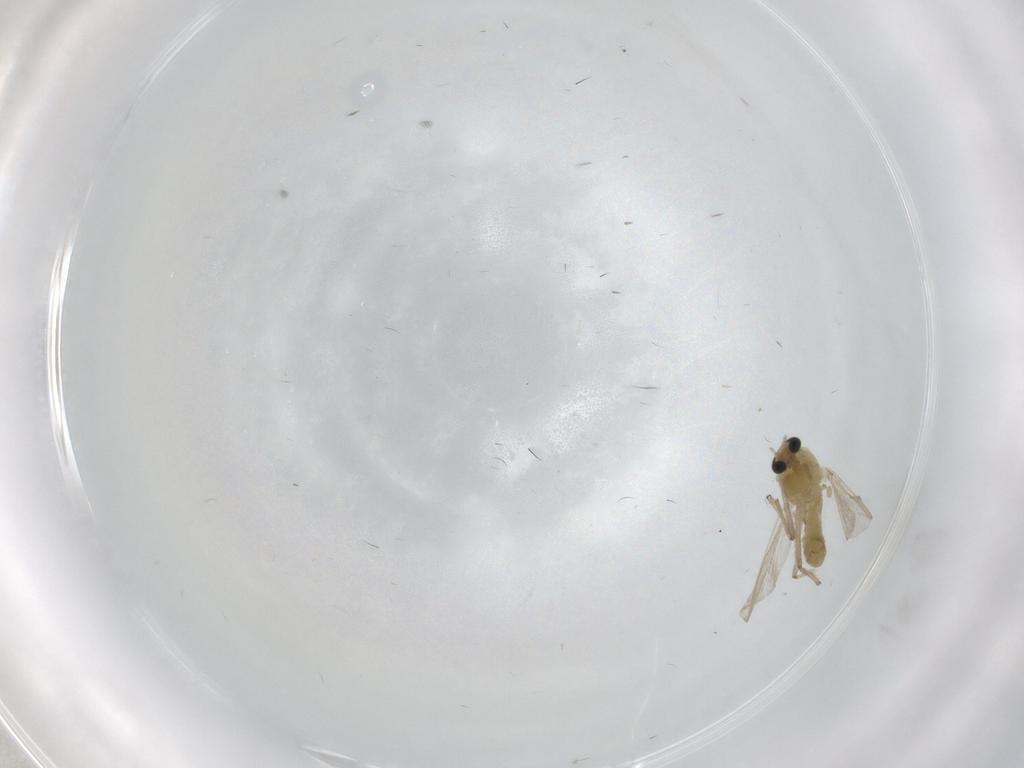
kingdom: Animalia
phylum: Arthropoda
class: Insecta
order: Diptera
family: Chironomidae
